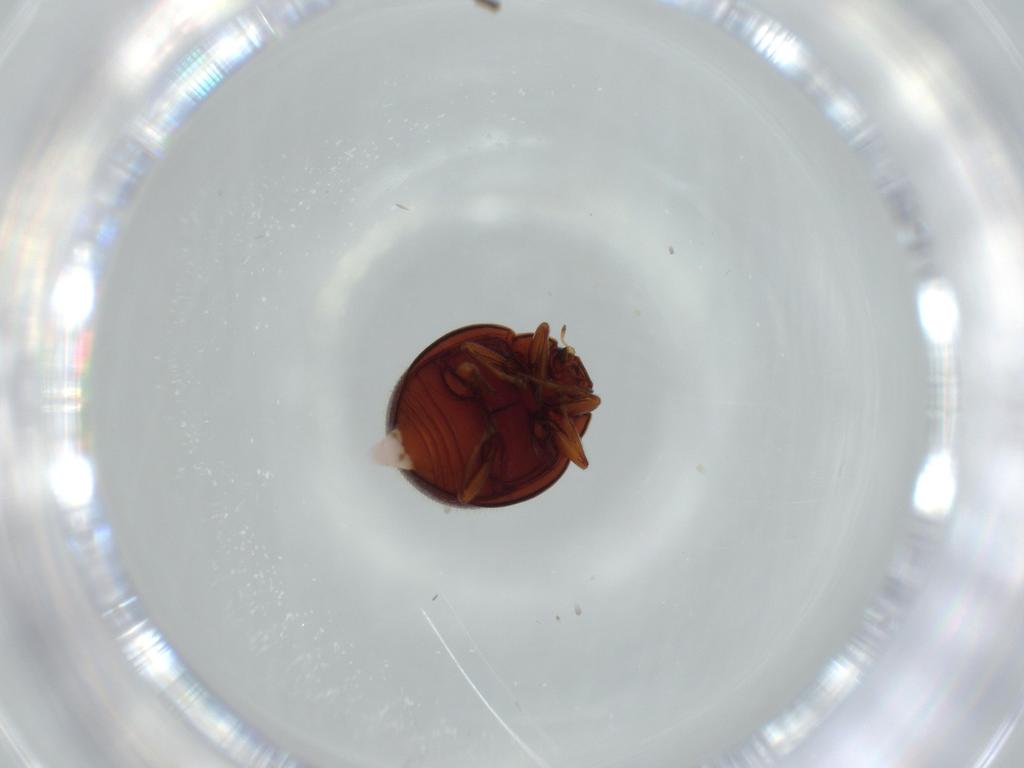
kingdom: Animalia
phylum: Arthropoda
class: Insecta
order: Coleoptera
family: Coccinellidae
